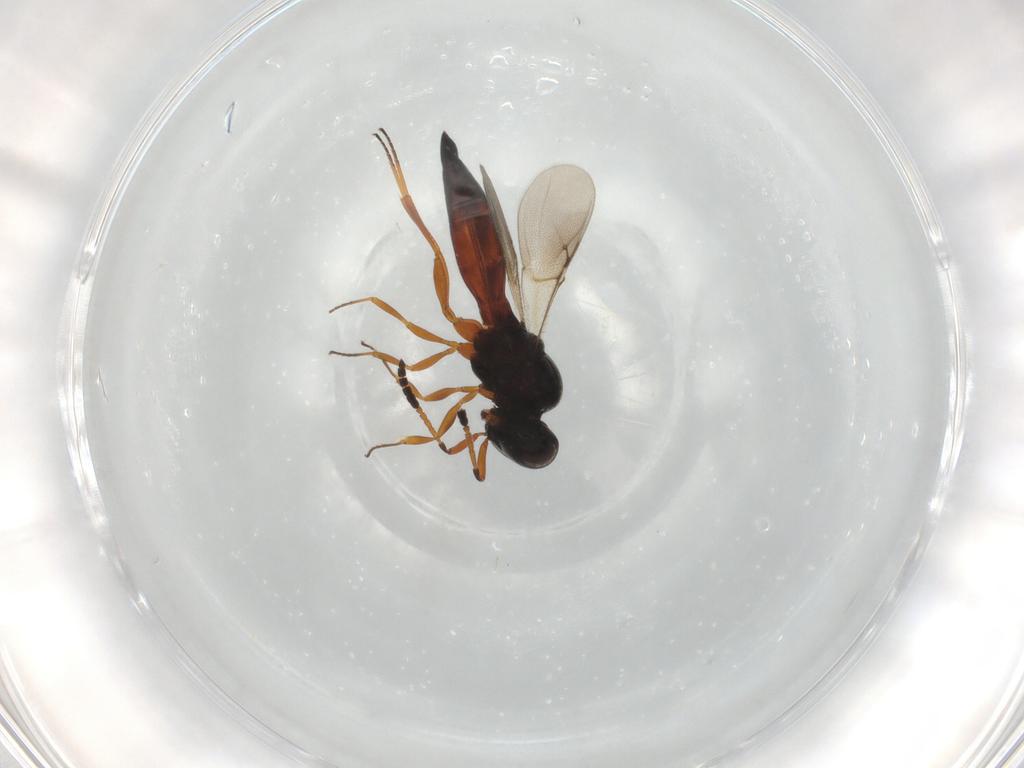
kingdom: Animalia
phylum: Arthropoda
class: Insecta
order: Hymenoptera
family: Scelionidae
